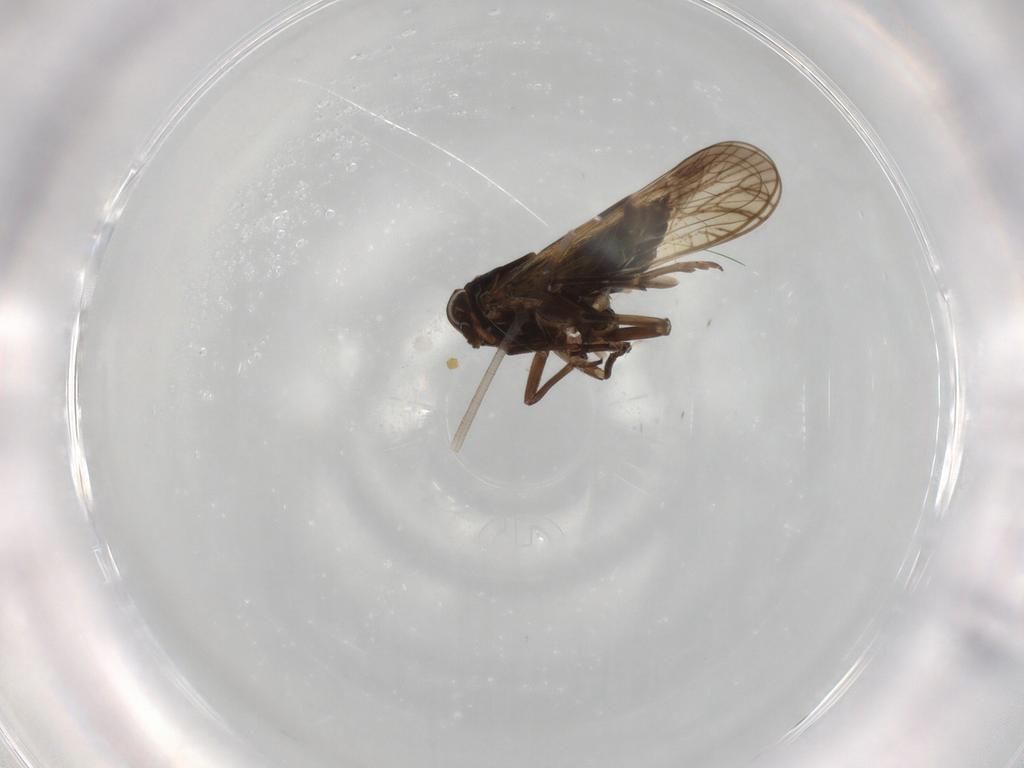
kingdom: Animalia
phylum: Arthropoda
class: Insecta
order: Hemiptera
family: Delphacidae
